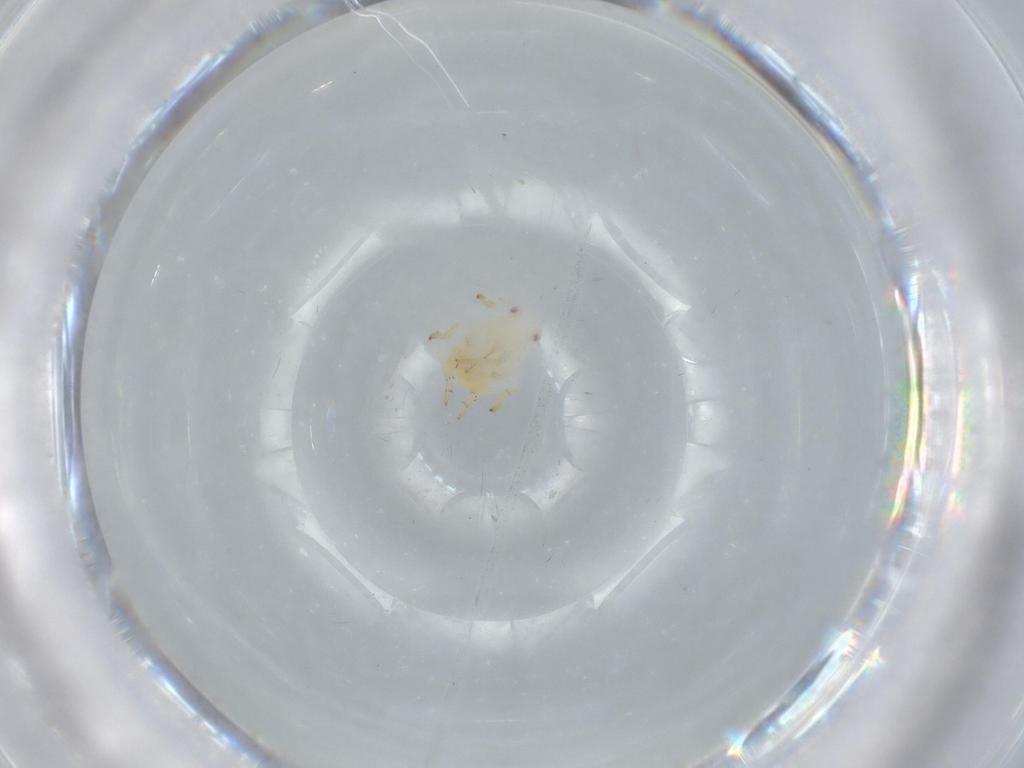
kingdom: Animalia
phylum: Arthropoda
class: Insecta
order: Hemiptera
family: Flatidae
